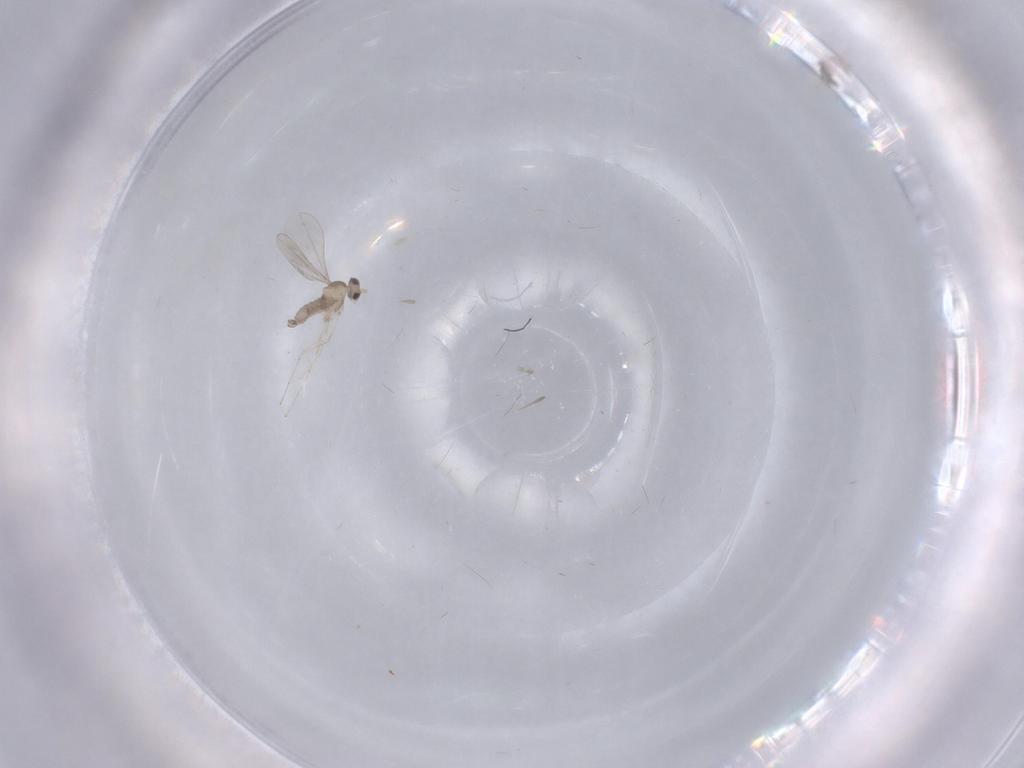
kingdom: Animalia
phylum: Arthropoda
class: Insecta
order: Diptera
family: Cecidomyiidae
